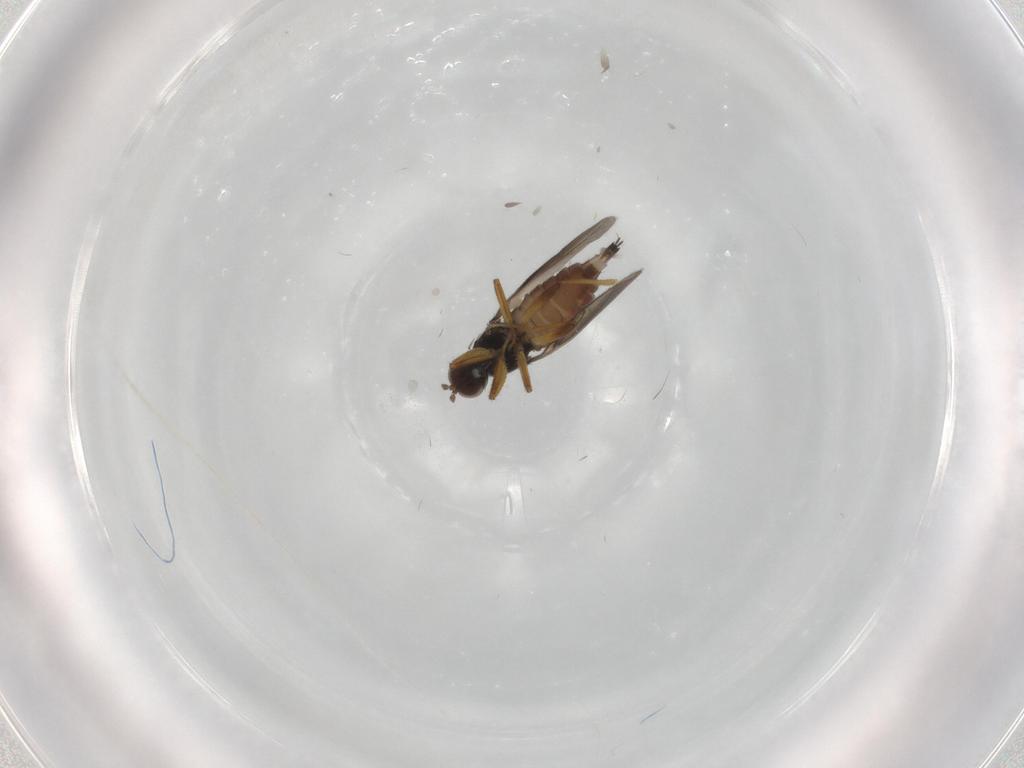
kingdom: Animalia
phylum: Arthropoda
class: Insecta
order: Diptera
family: Hybotidae
